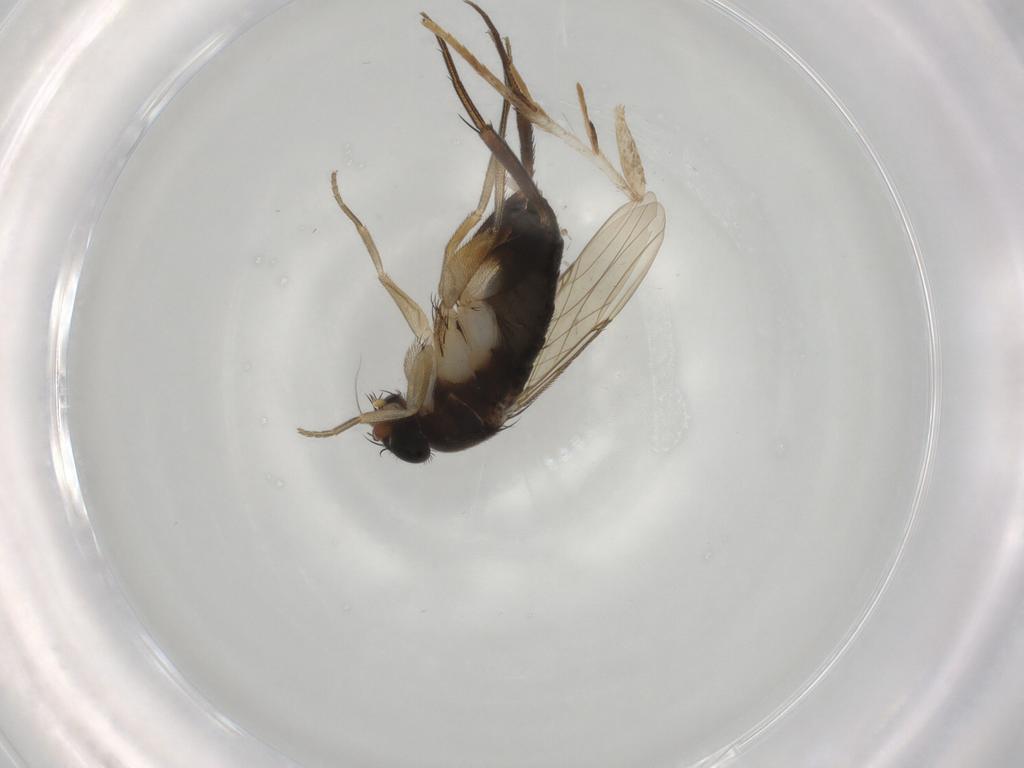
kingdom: Animalia
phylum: Arthropoda
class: Insecta
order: Diptera
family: Phoridae
